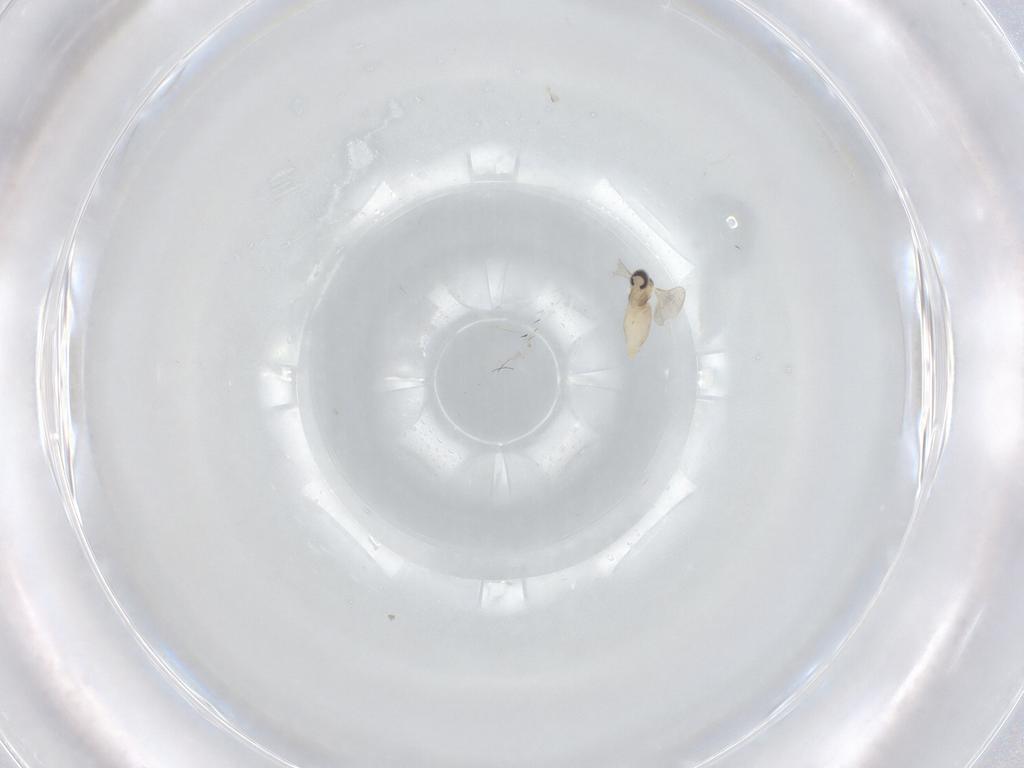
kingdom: Animalia
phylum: Arthropoda
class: Insecta
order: Diptera
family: Cecidomyiidae
